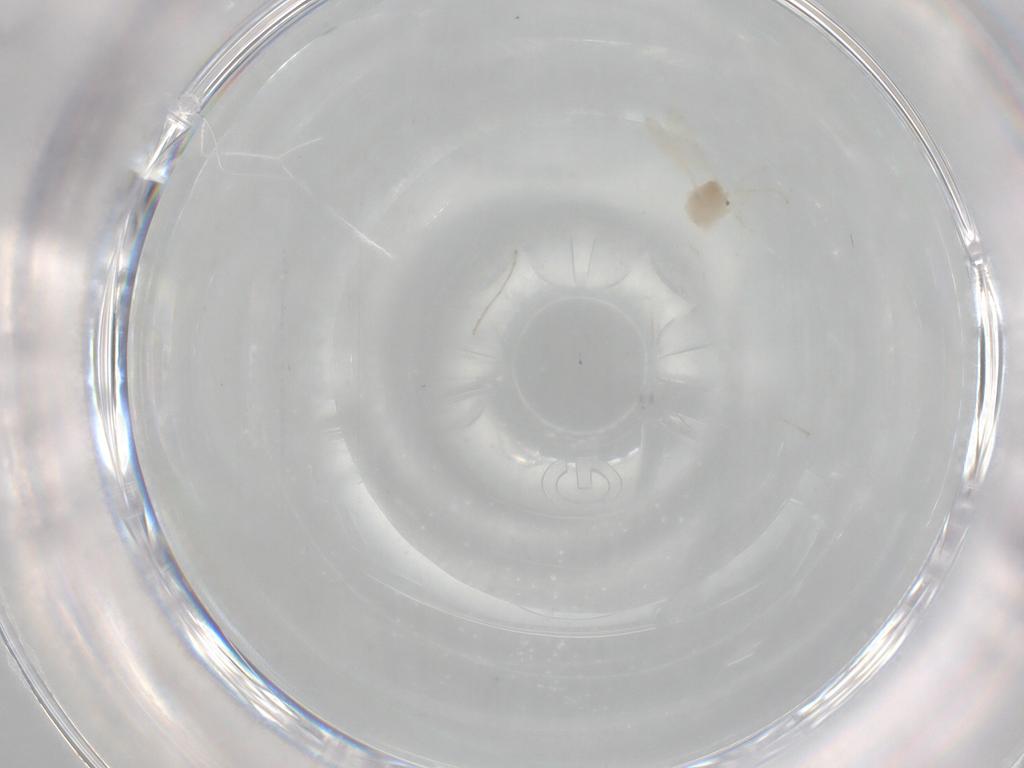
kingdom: Animalia
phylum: Arthropoda
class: Insecta
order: Diptera
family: Cecidomyiidae
